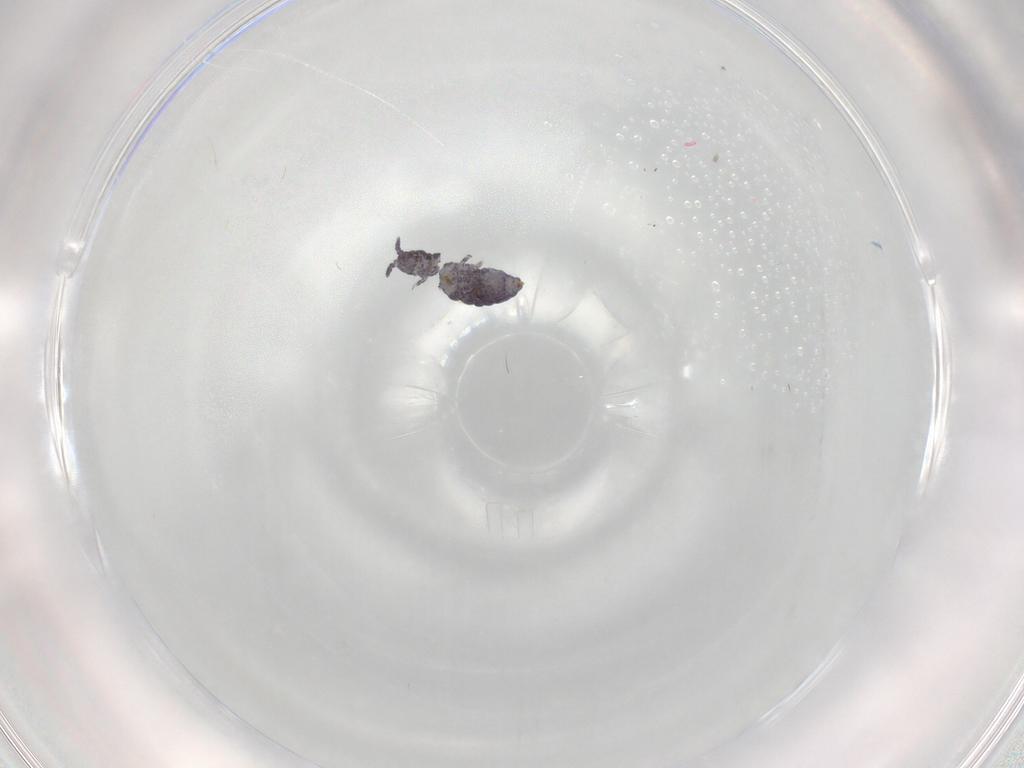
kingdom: Animalia
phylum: Arthropoda
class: Collembola
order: Poduromorpha
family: Brachystomellidae
